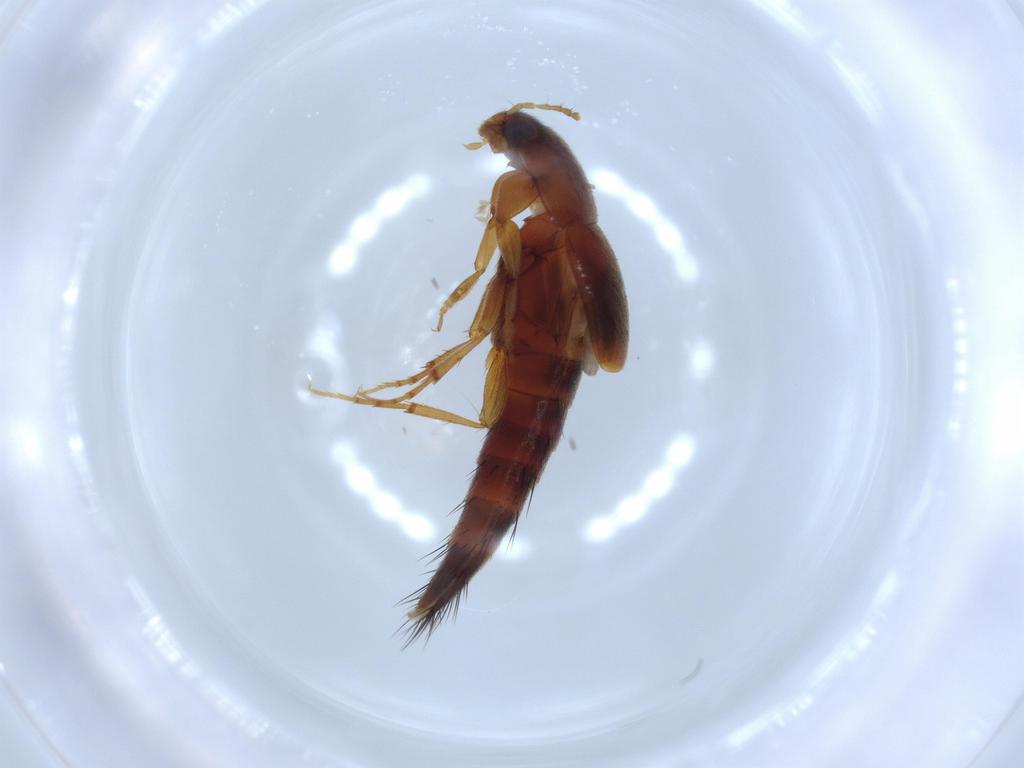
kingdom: Animalia
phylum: Arthropoda
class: Insecta
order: Coleoptera
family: Staphylinidae
